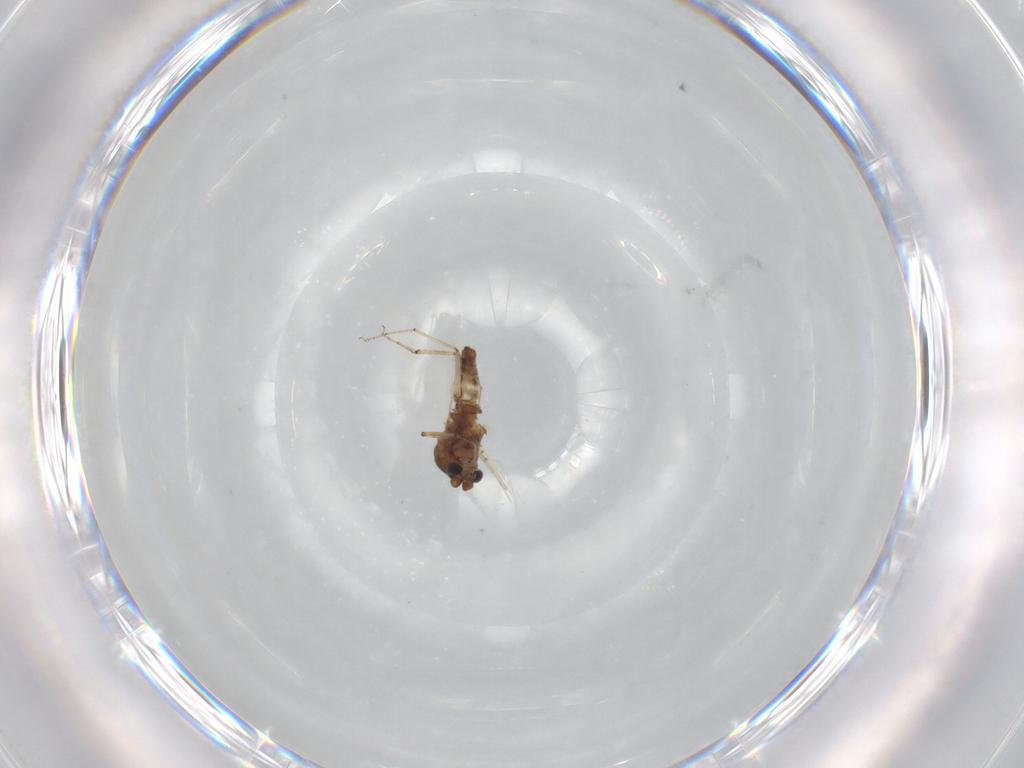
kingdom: Animalia
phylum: Arthropoda
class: Insecta
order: Diptera
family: Ceratopogonidae
